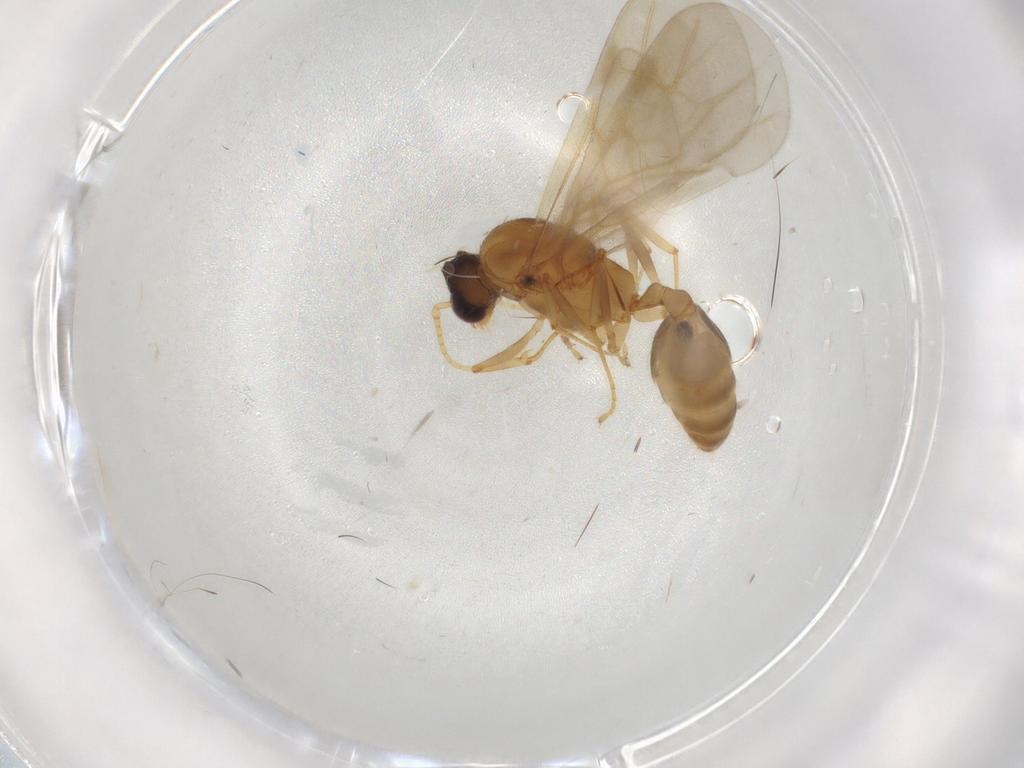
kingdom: Animalia
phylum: Arthropoda
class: Insecta
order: Hymenoptera
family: Formicidae
